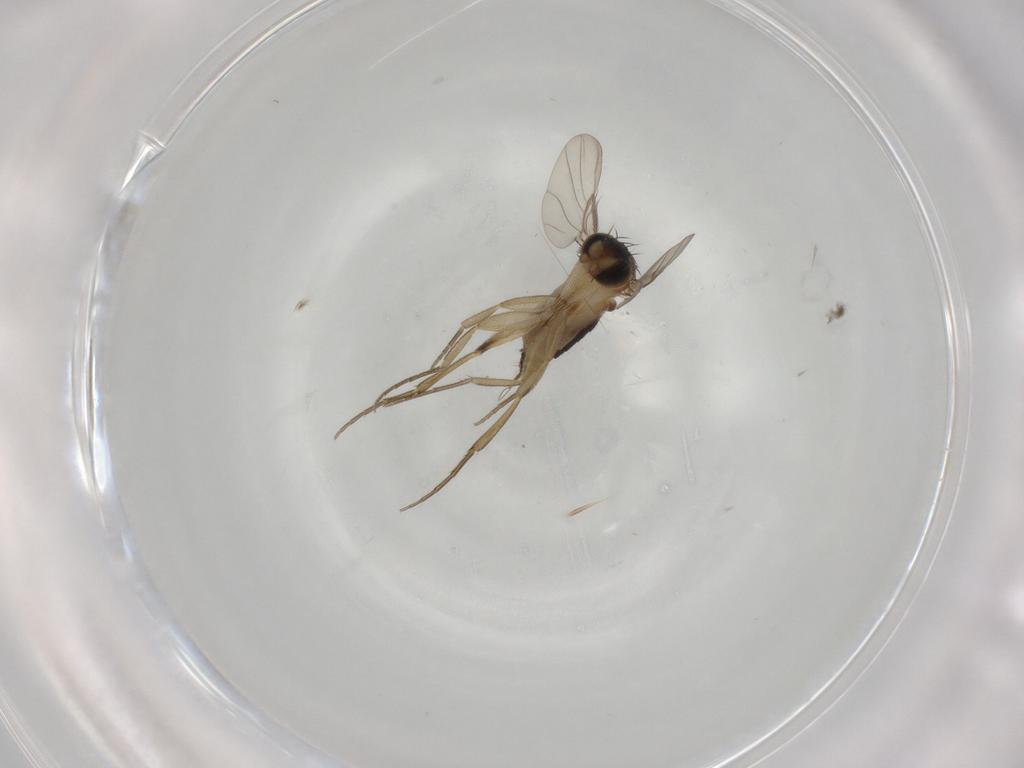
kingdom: Animalia
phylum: Arthropoda
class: Insecta
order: Diptera
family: Phoridae
